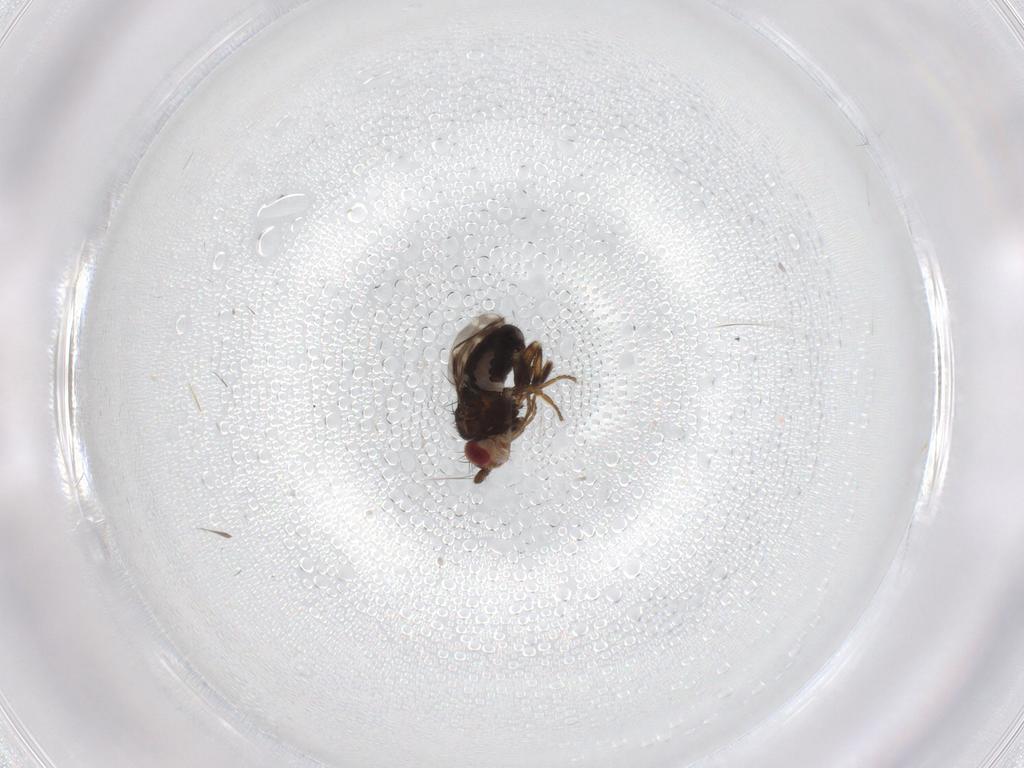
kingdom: Animalia
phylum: Arthropoda
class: Insecta
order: Diptera
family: Sphaeroceridae
